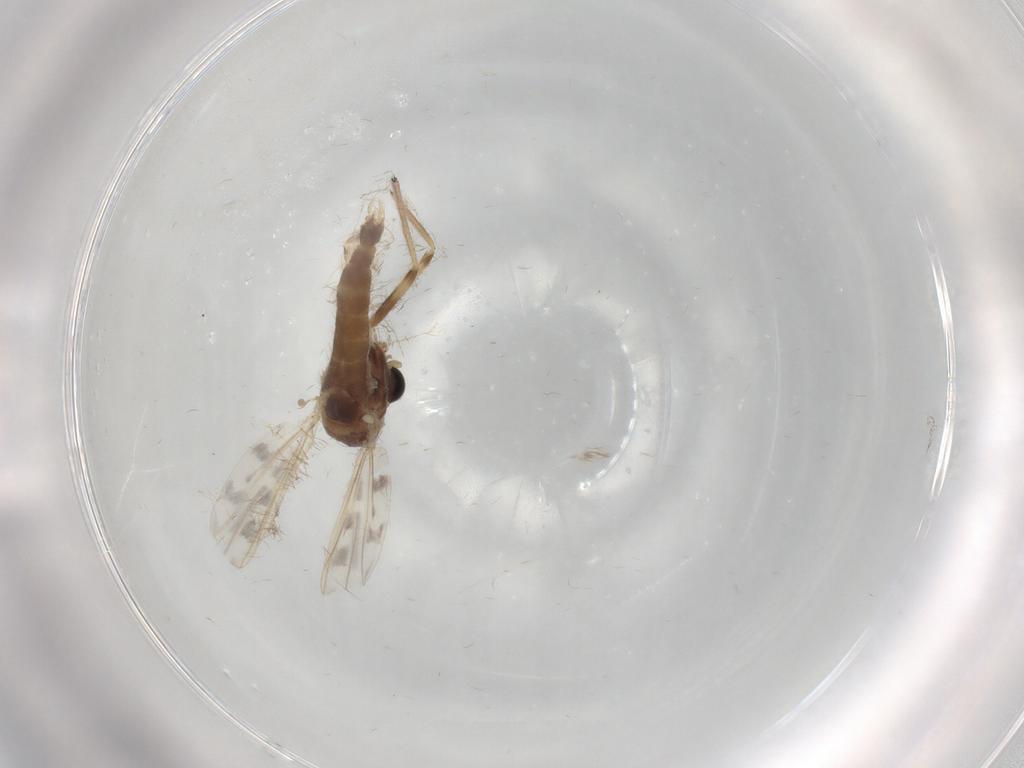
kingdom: Animalia
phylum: Arthropoda
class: Insecta
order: Diptera
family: Chironomidae
